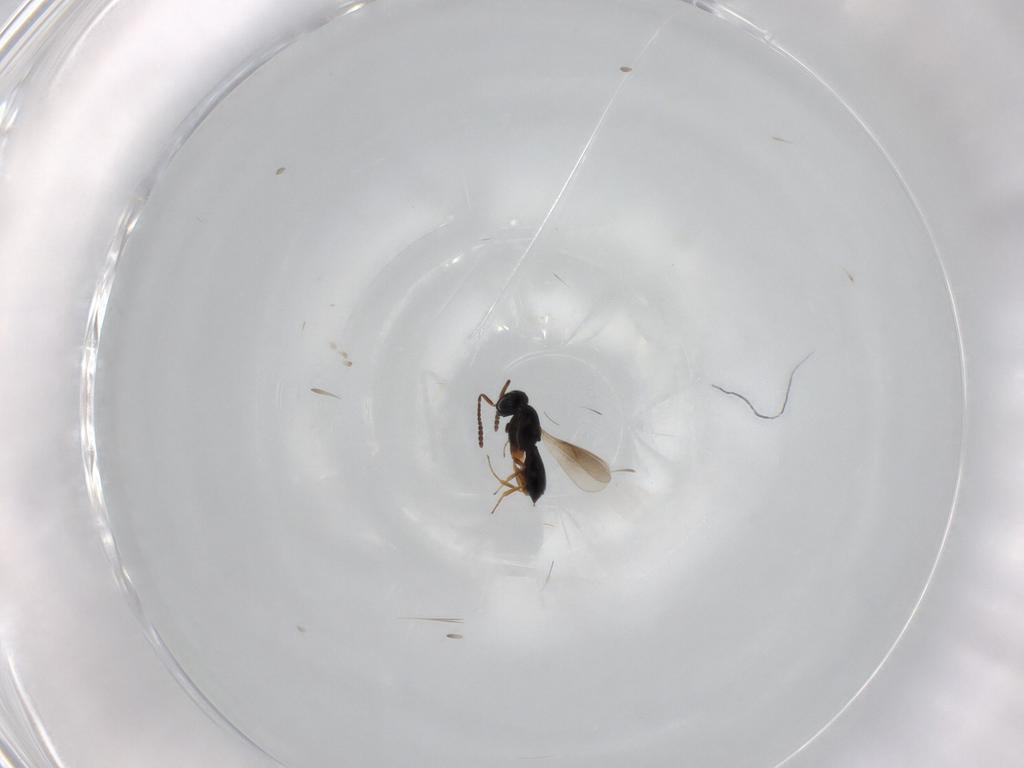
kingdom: Animalia
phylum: Arthropoda
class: Insecta
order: Hymenoptera
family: Scelionidae
